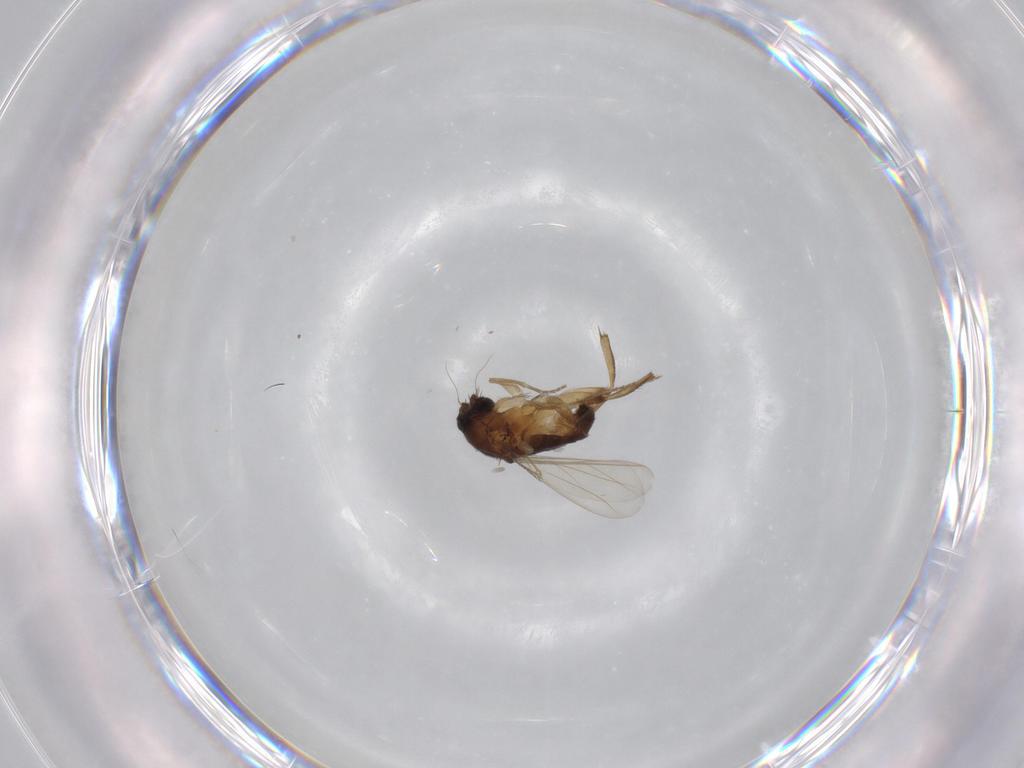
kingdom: Animalia
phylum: Arthropoda
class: Insecta
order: Diptera
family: Phoridae
